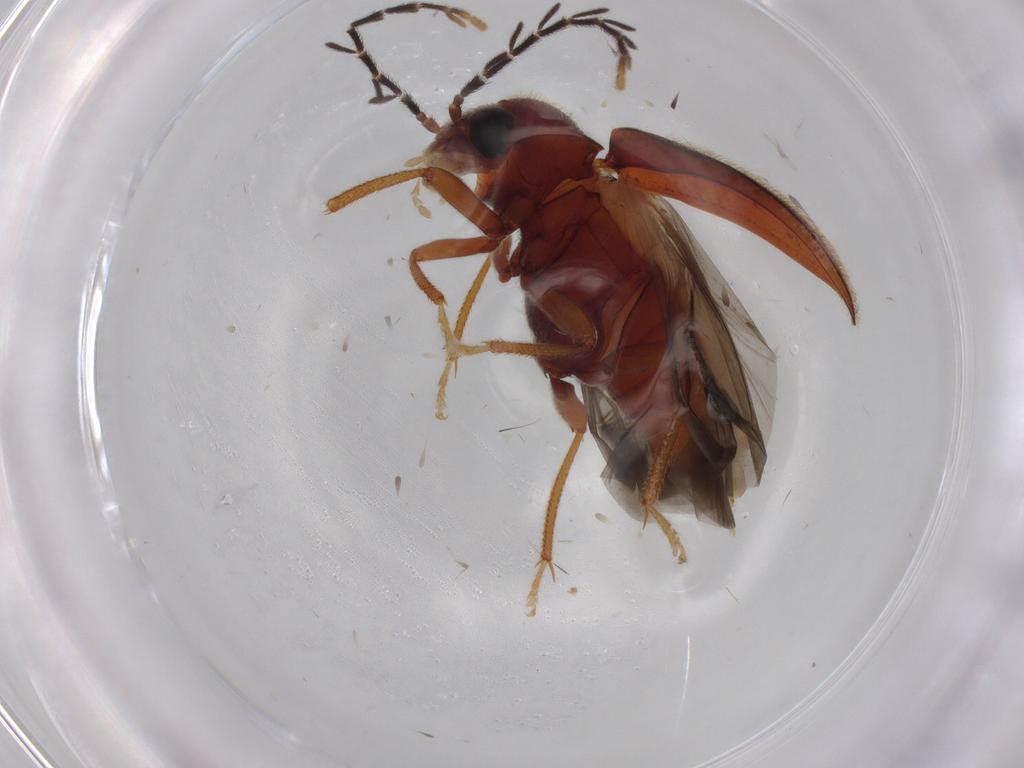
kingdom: Animalia
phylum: Arthropoda
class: Insecta
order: Coleoptera
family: Ptilodactylidae
